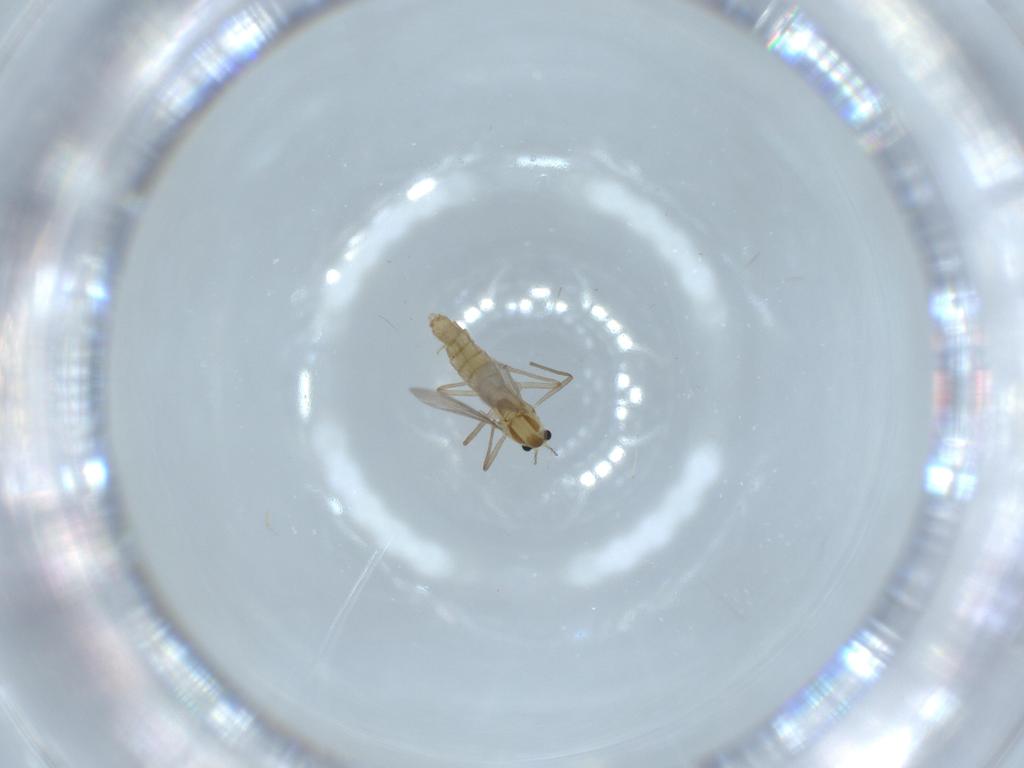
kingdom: Animalia
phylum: Arthropoda
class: Insecta
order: Diptera
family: Chironomidae
